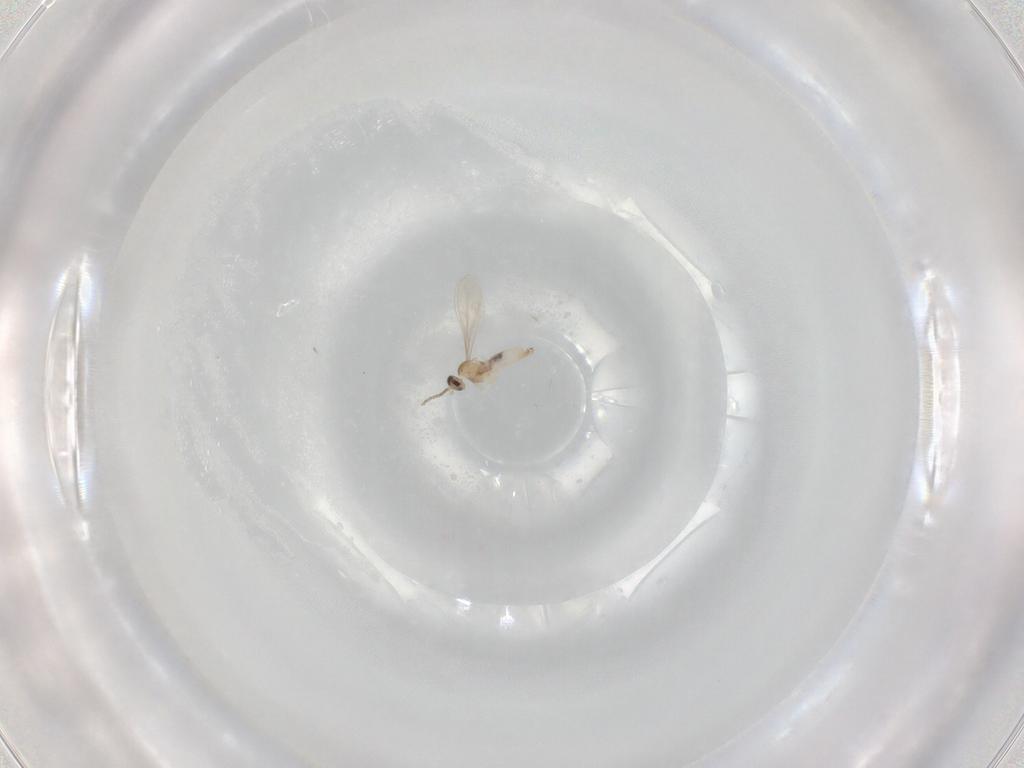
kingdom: Animalia
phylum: Arthropoda
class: Insecta
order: Diptera
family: Cecidomyiidae
